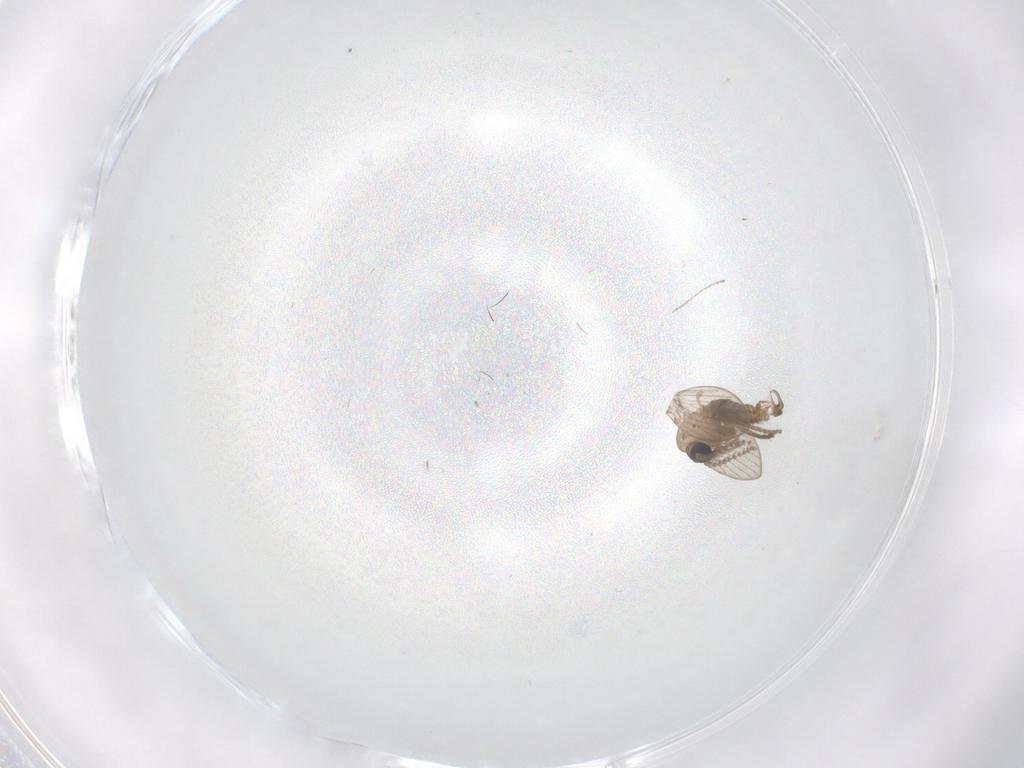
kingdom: Animalia
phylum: Arthropoda
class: Insecta
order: Diptera
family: Psychodidae
